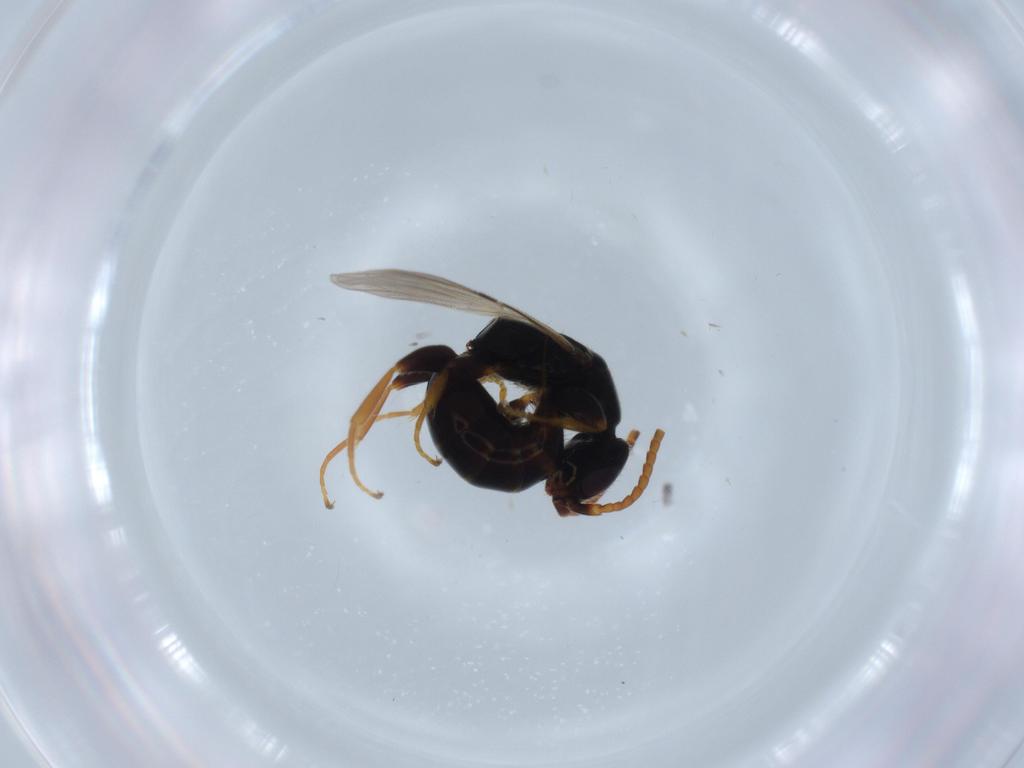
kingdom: Animalia
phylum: Arthropoda
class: Insecta
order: Hymenoptera
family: Bethylidae
